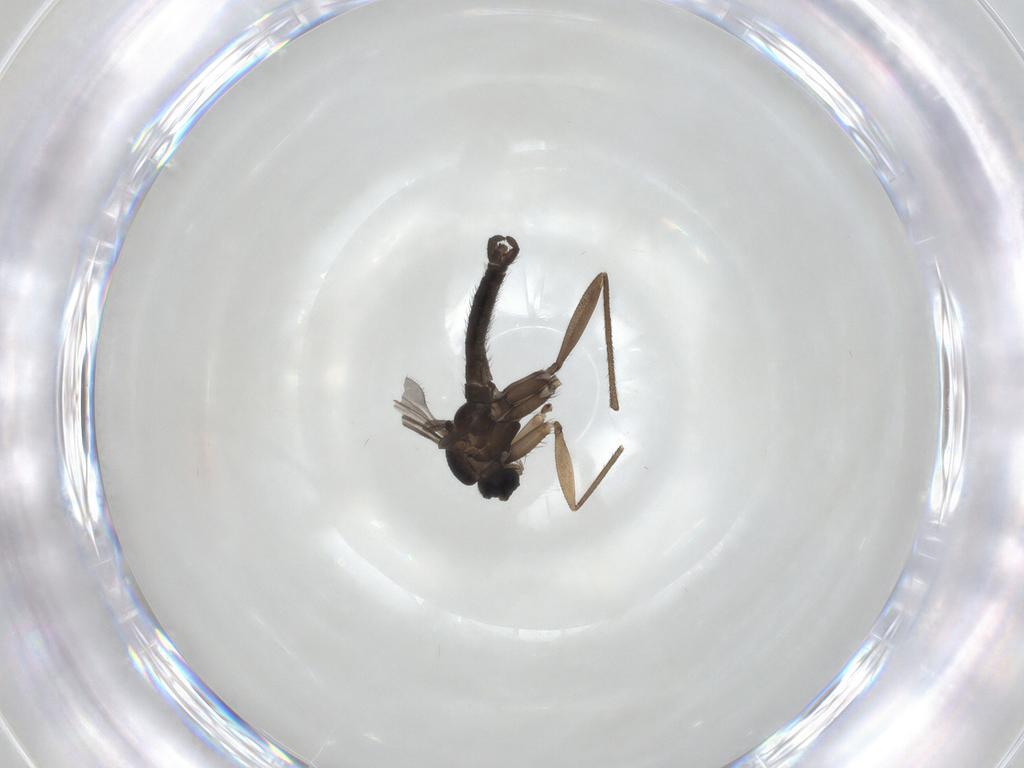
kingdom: Animalia
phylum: Arthropoda
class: Insecta
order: Diptera
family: Sciaridae
